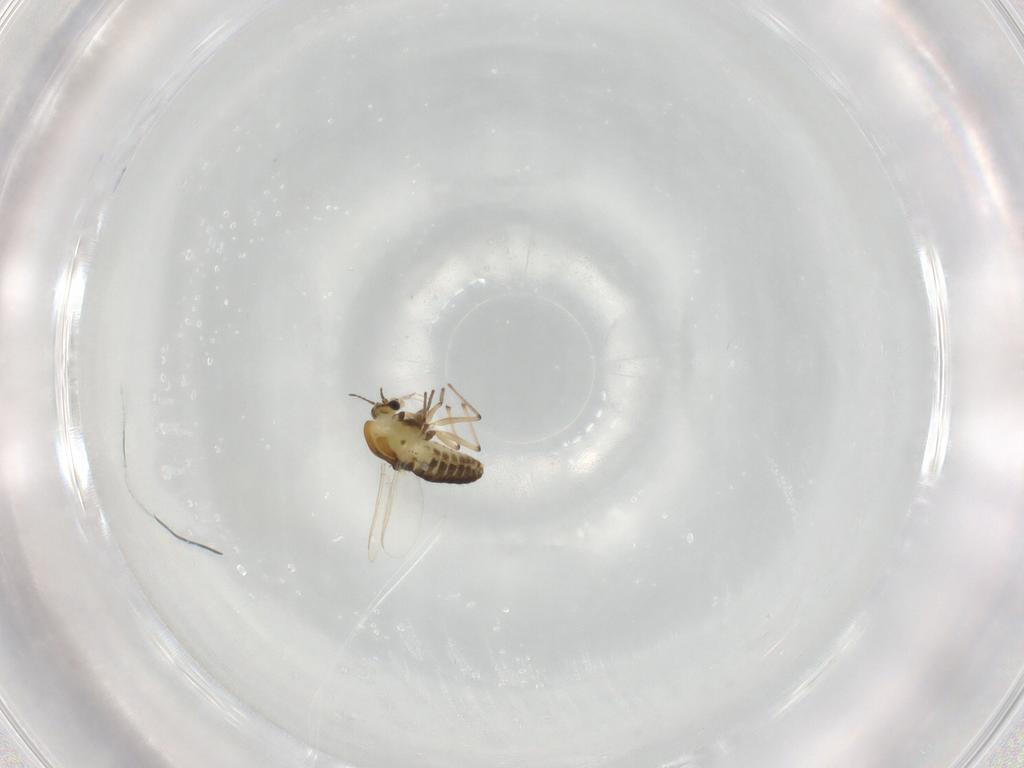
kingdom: Animalia
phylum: Arthropoda
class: Insecta
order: Diptera
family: Chironomidae
